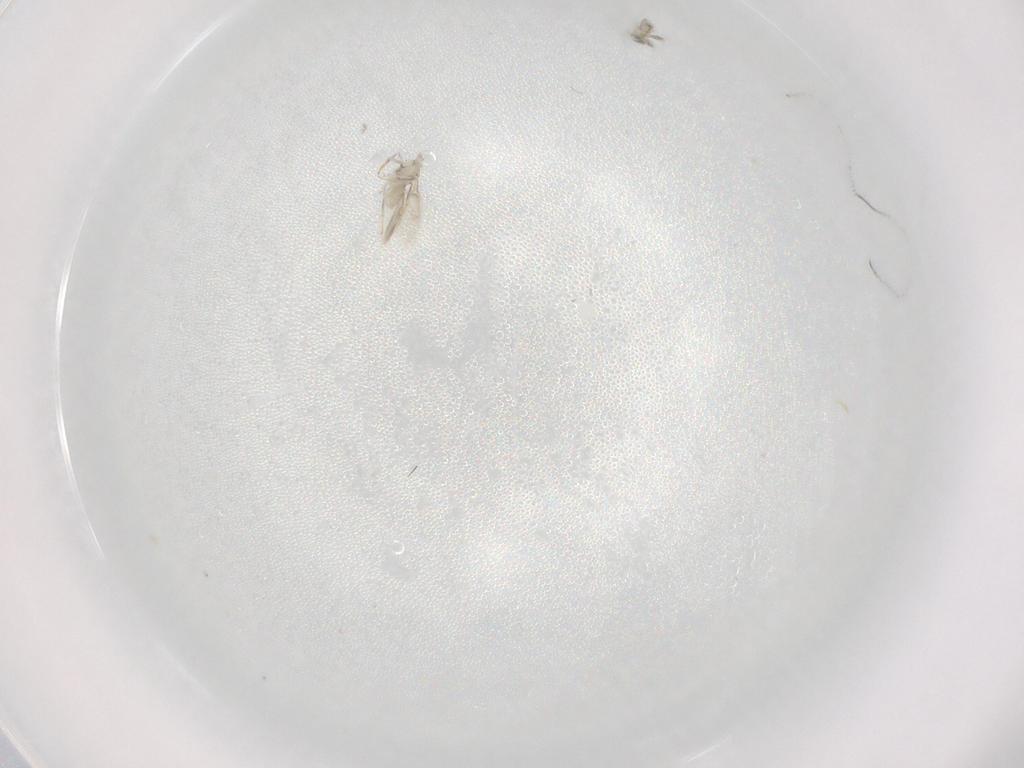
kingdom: Animalia
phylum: Arthropoda
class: Insecta
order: Hymenoptera
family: Aphelinidae
